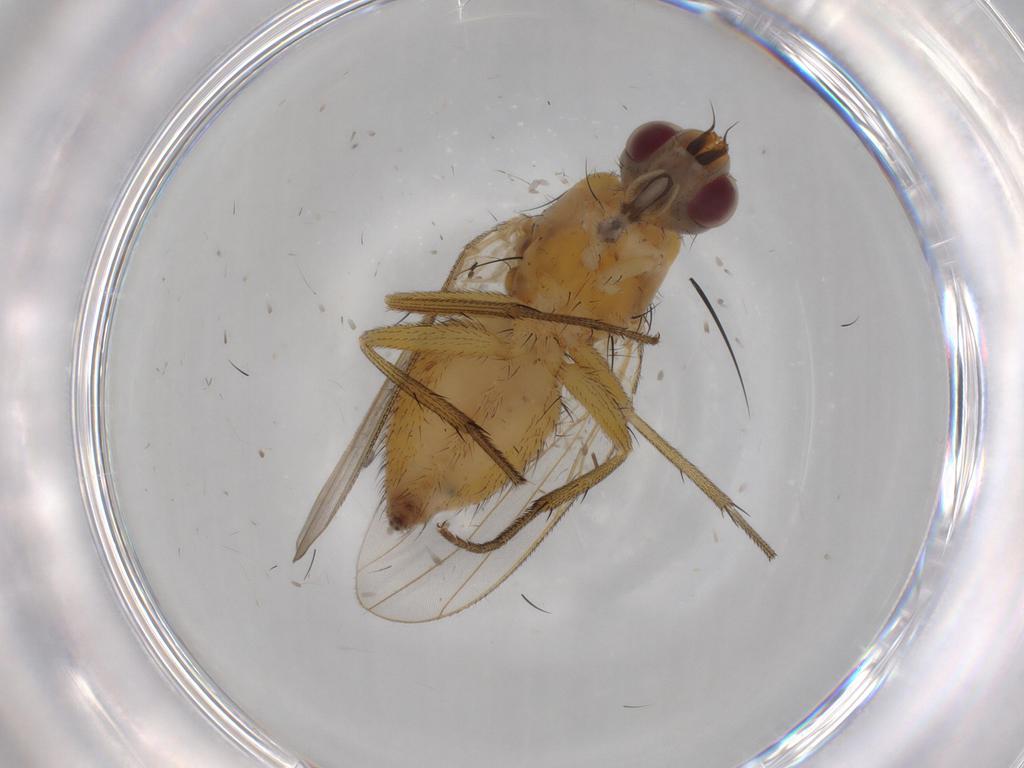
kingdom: Animalia
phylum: Arthropoda
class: Insecta
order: Diptera
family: Muscidae
